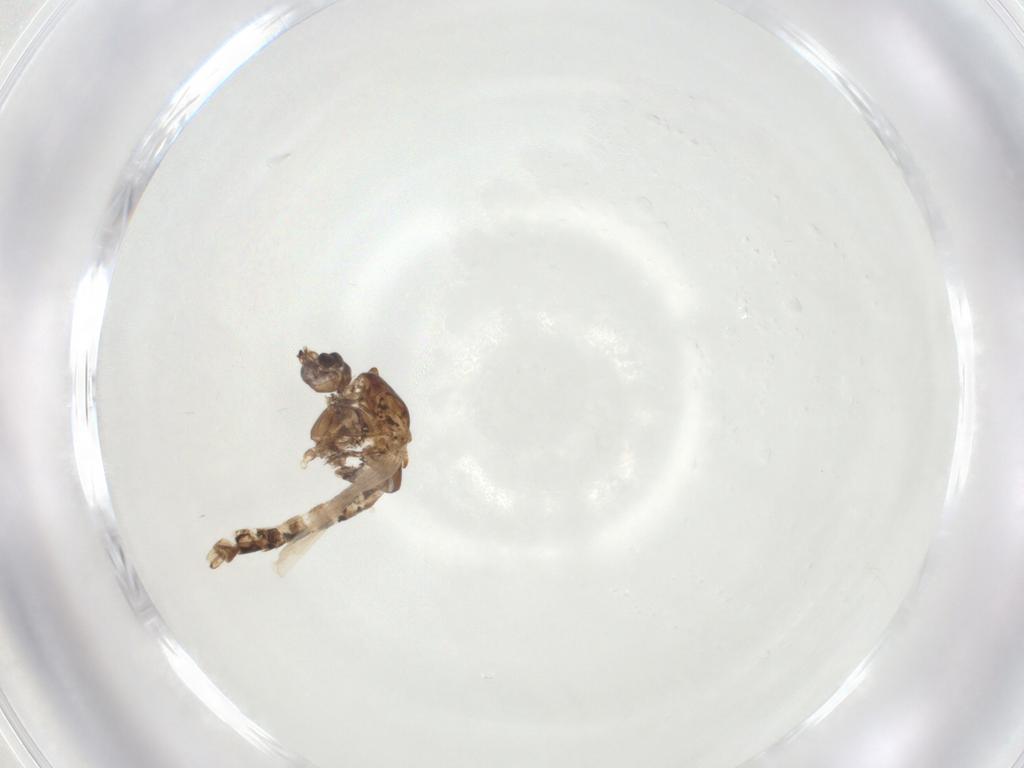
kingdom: Animalia
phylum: Arthropoda
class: Insecta
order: Diptera
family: Chironomidae
